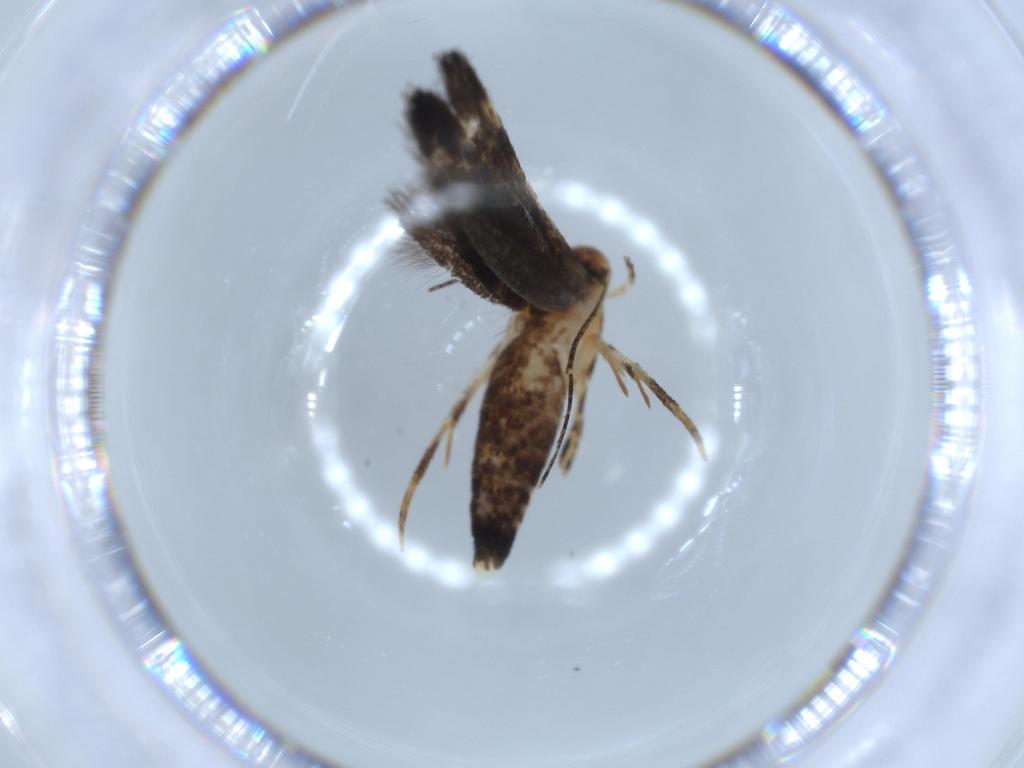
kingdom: Animalia
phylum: Arthropoda
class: Insecta
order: Lepidoptera
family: Momphidae
